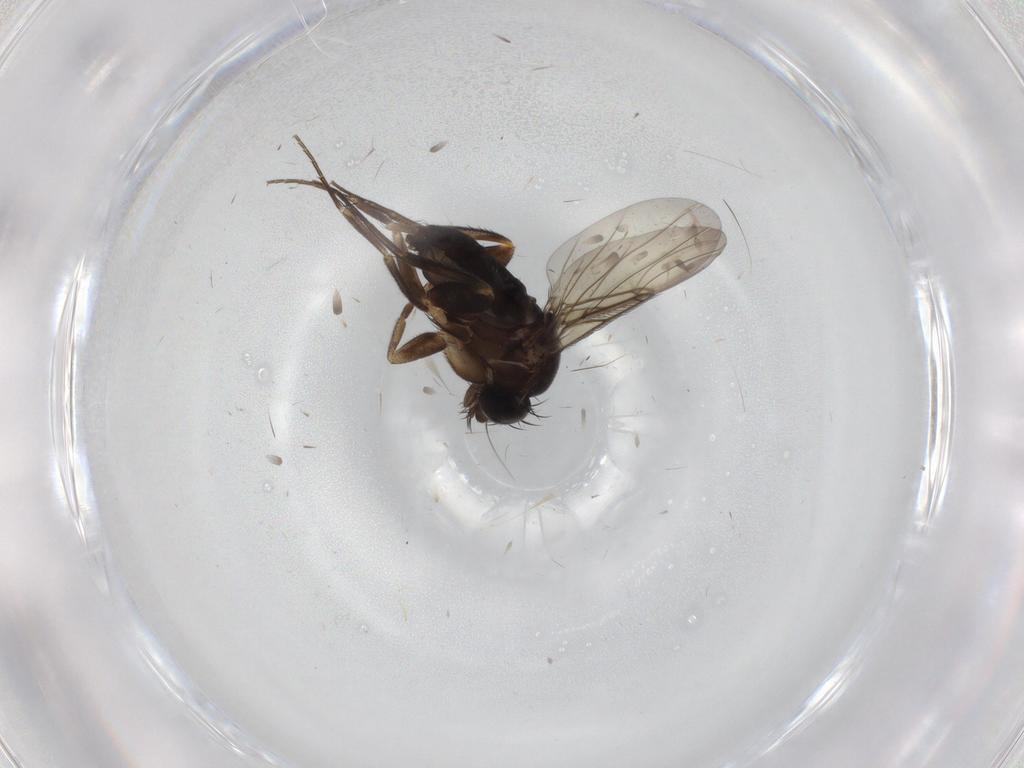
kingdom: Animalia
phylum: Arthropoda
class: Insecta
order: Diptera
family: Phoridae
